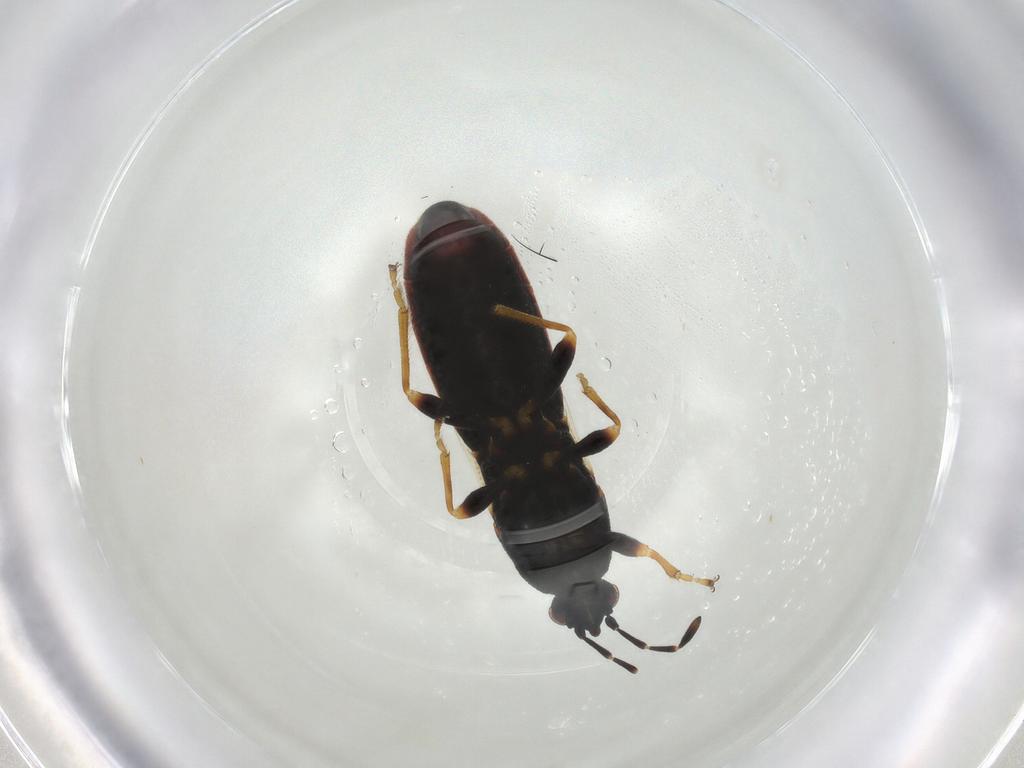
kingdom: Animalia
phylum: Arthropoda
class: Insecta
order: Hemiptera
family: Blissidae
